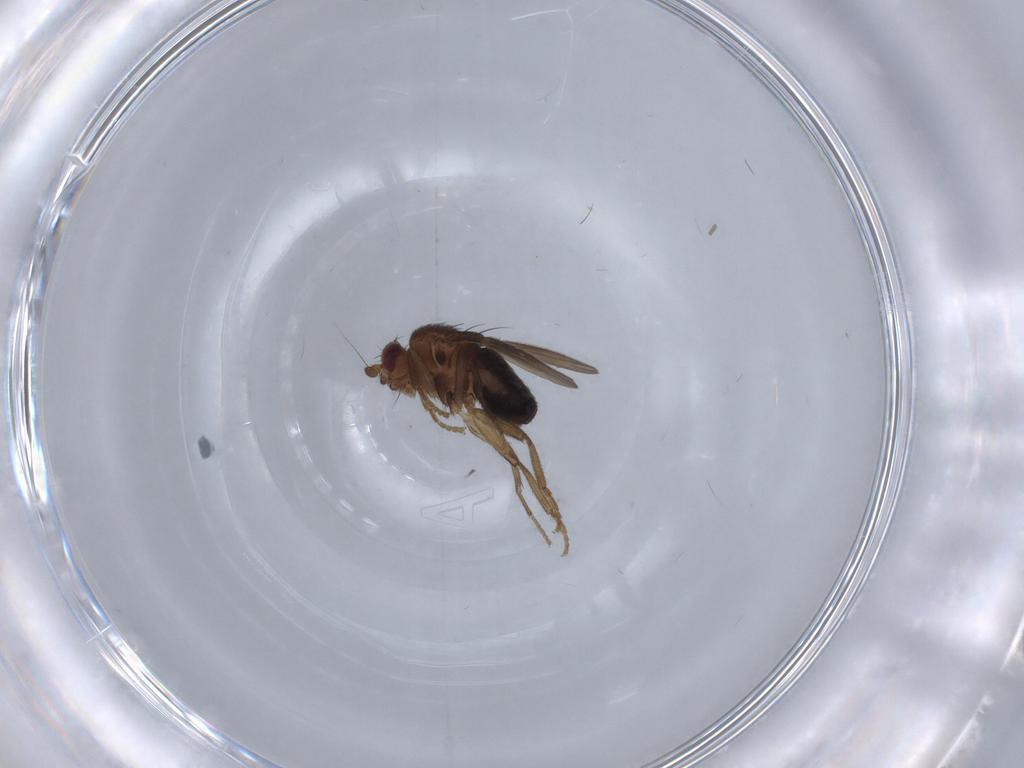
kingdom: Animalia
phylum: Arthropoda
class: Insecta
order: Diptera
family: Sphaeroceridae
